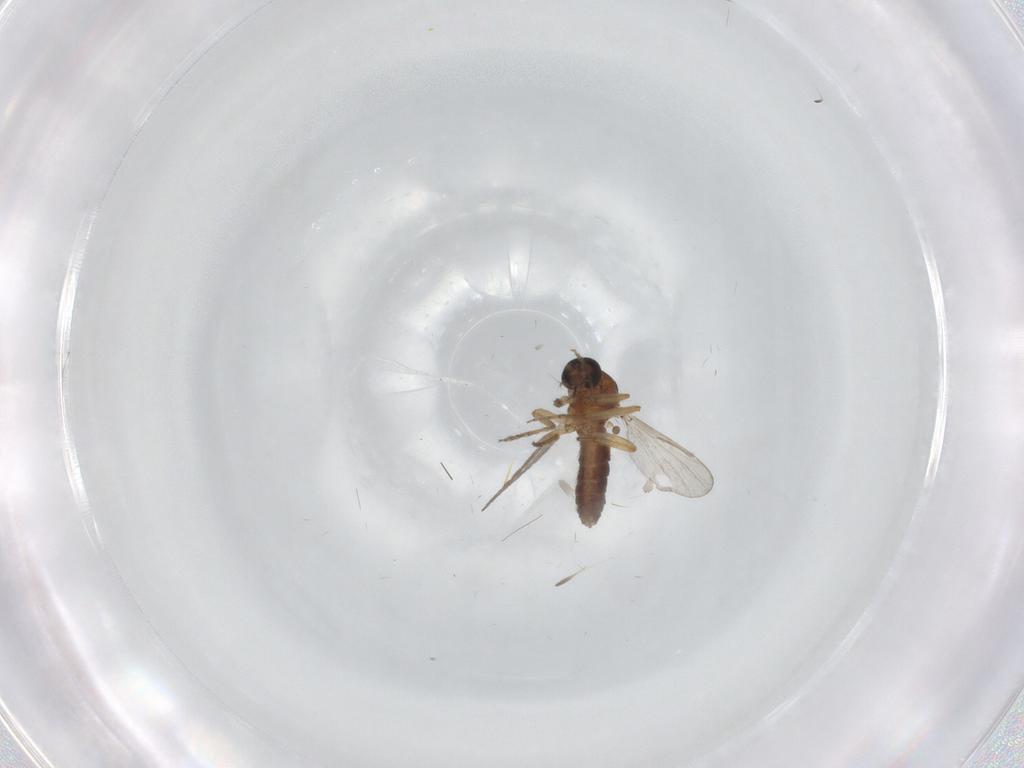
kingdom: Animalia
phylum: Arthropoda
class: Insecta
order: Diptera
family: Ceratopogonidae
